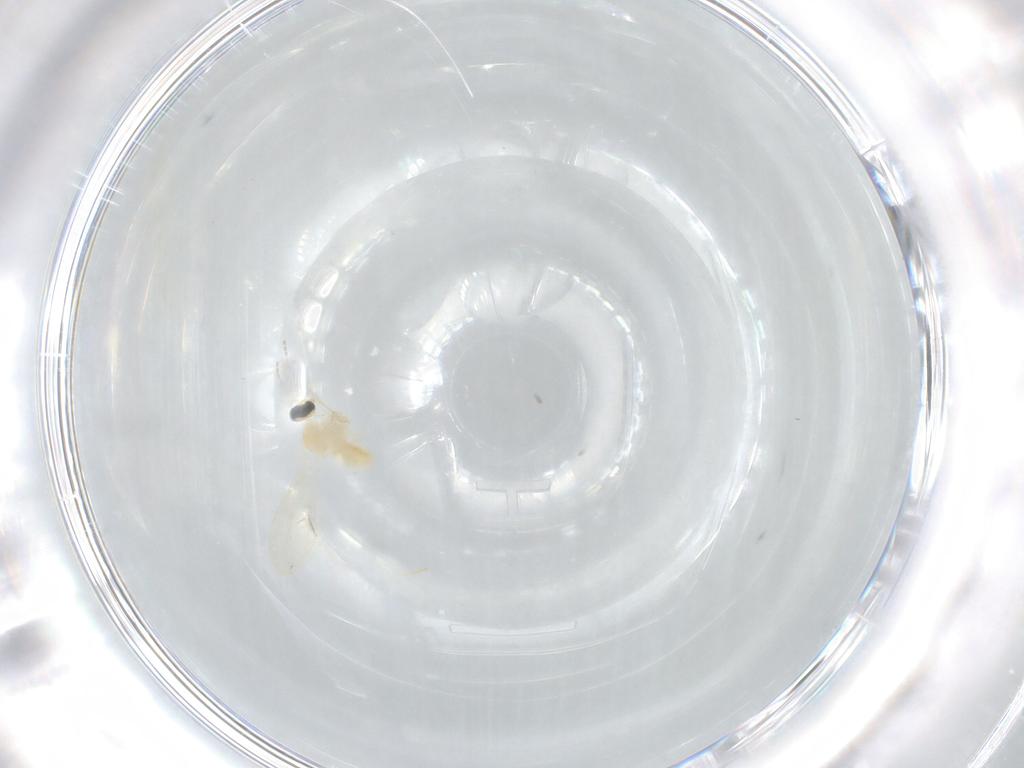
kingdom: Animalia
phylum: Arthropoda
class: Insecta
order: Diptera
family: Cecidomyiidae
